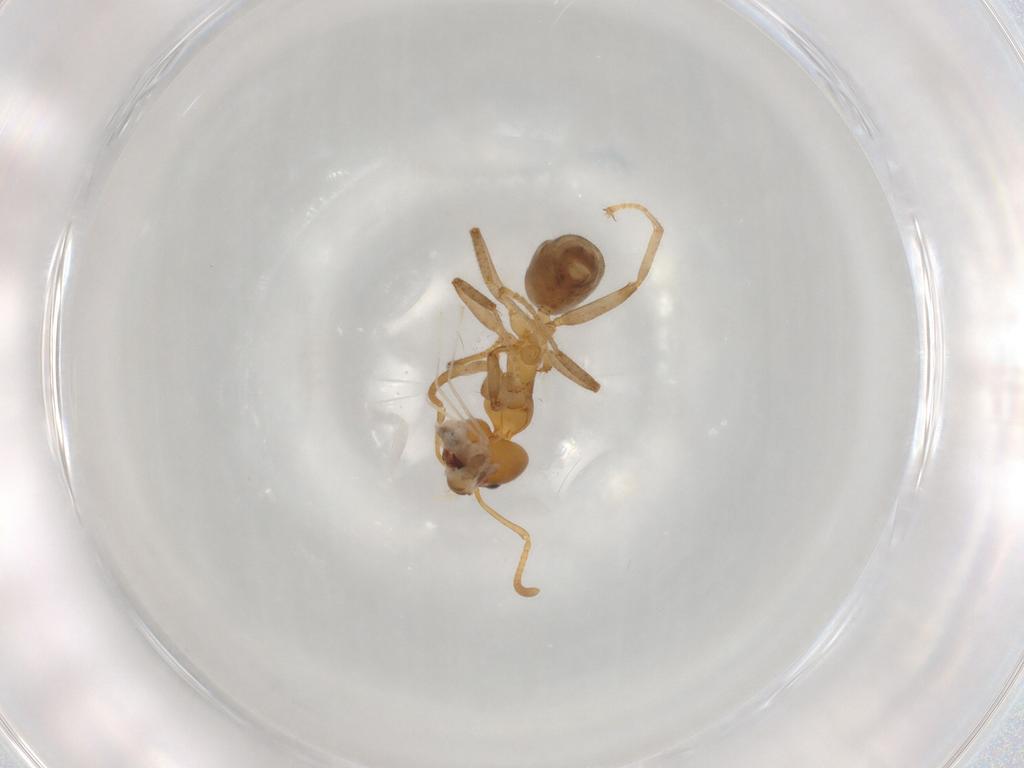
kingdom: Animalia
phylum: Arthropoda
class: Insecta
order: Hymenoptera
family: Formicidae
